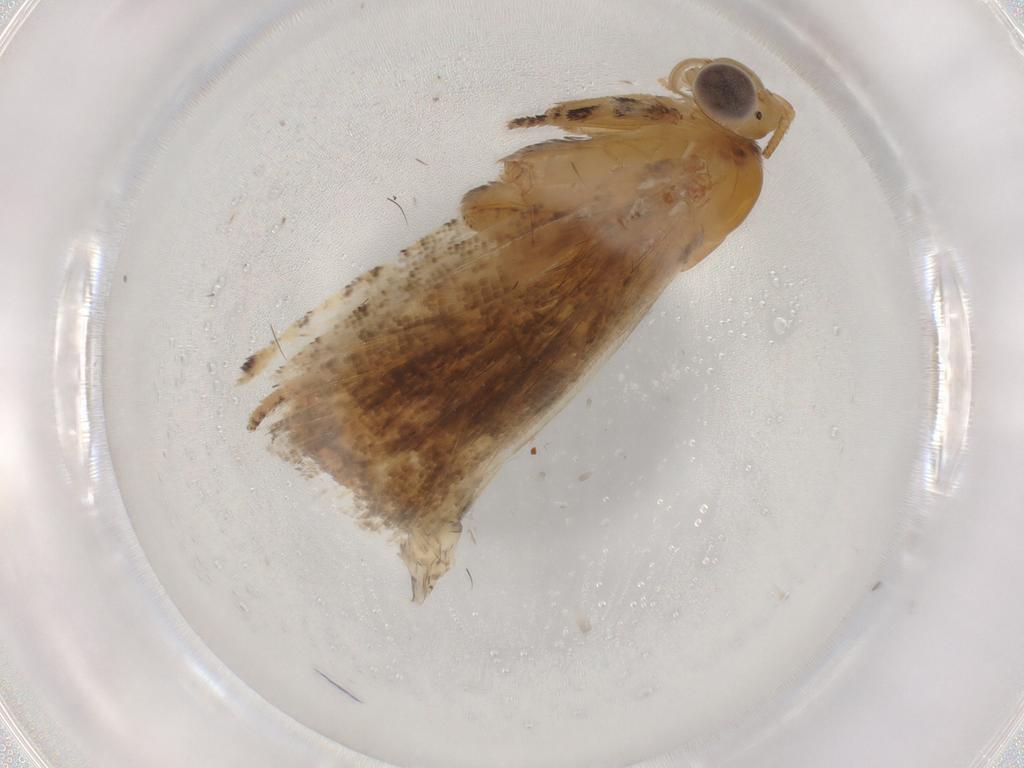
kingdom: Animalia
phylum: Arthropoda
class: Insecta
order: Lepidoptera
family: Tortricidae
